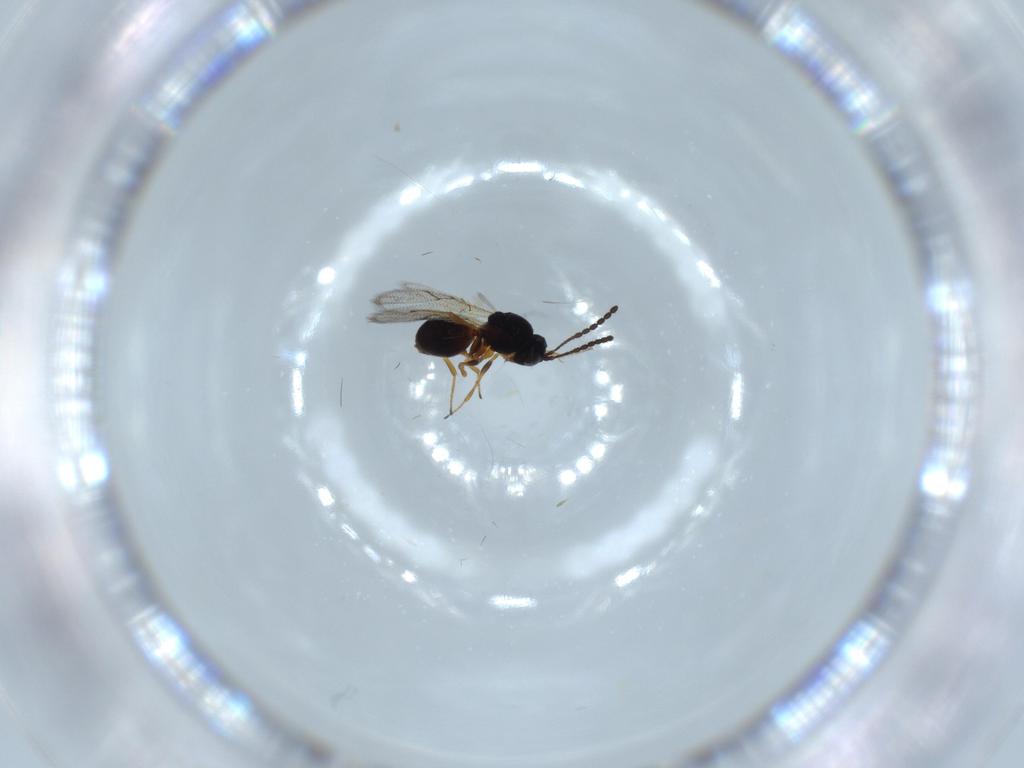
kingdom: Animalia
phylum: Arthropoda
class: Insecta
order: Hymenoptera
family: Figitidae
